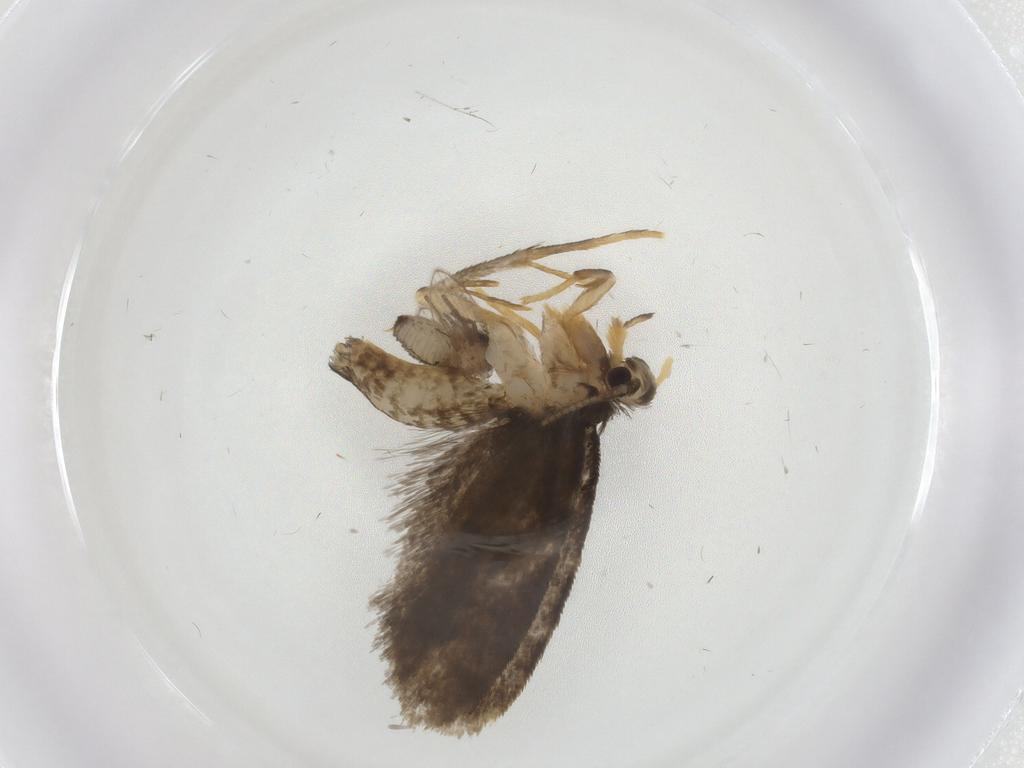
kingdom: Animalia
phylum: Arthropoda
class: Insecta
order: Lepidoptera
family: Psychidae
